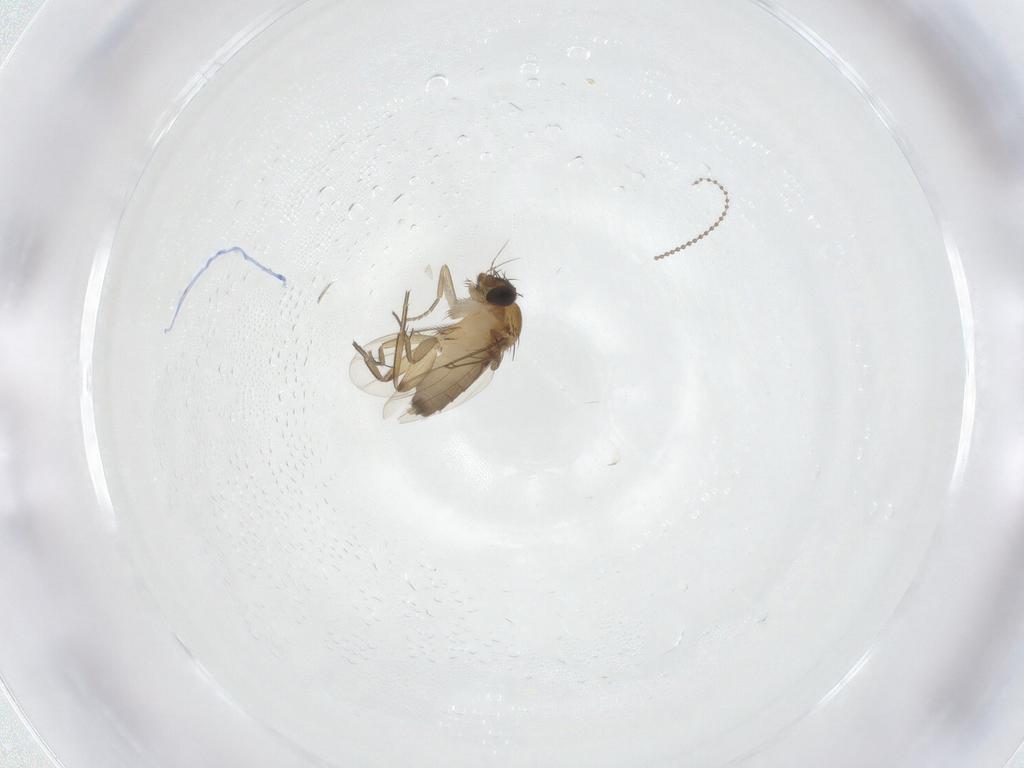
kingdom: Animalia
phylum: Arthropoda
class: Insecta
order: Diptera
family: Phoridae
